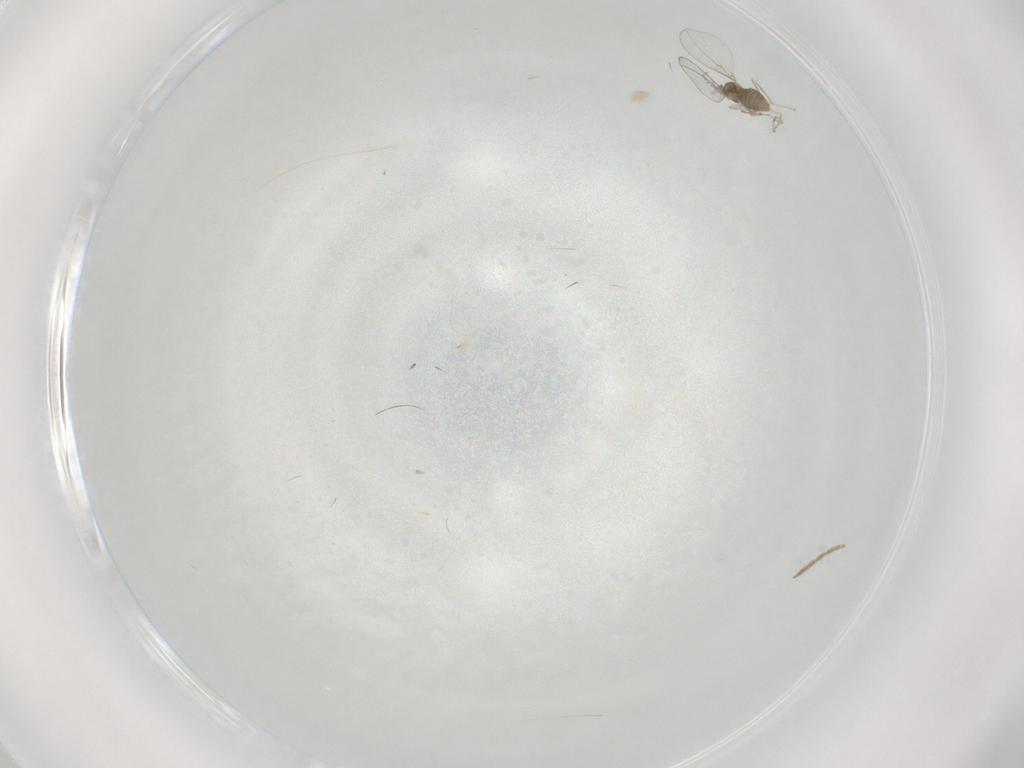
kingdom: Animalia
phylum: Arthropoda
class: Insecta
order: Diptera
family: Cecidomyiidae
